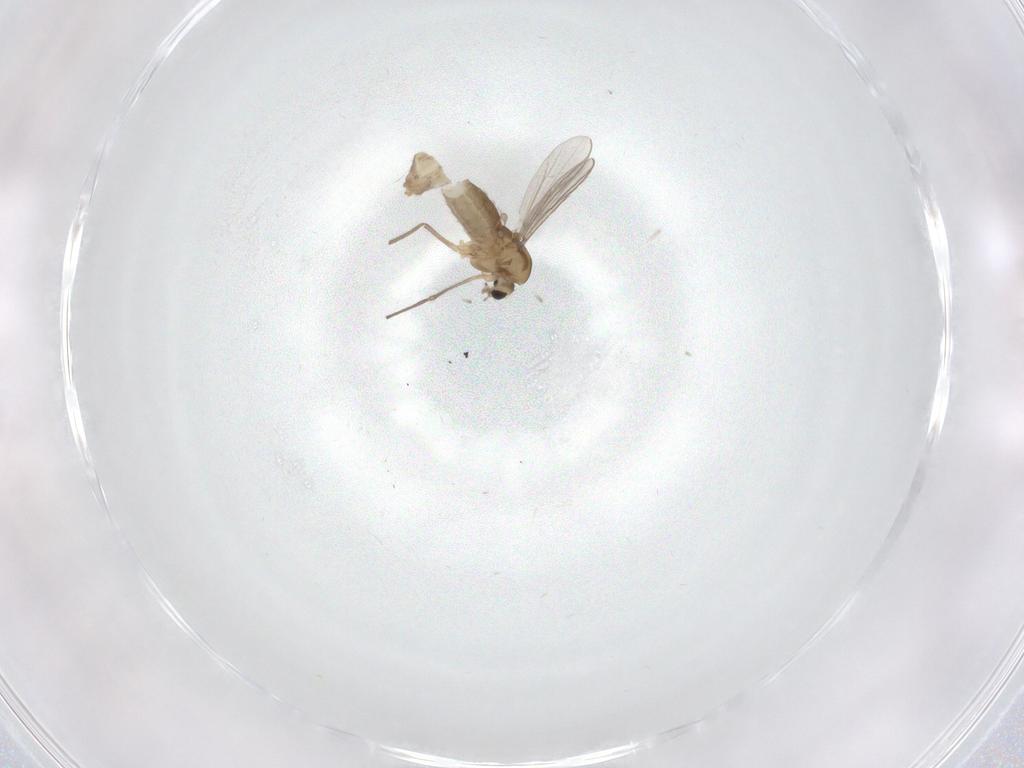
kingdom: Animalia
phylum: Arthropoda
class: Insecta
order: Diptera
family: Chironomidae
